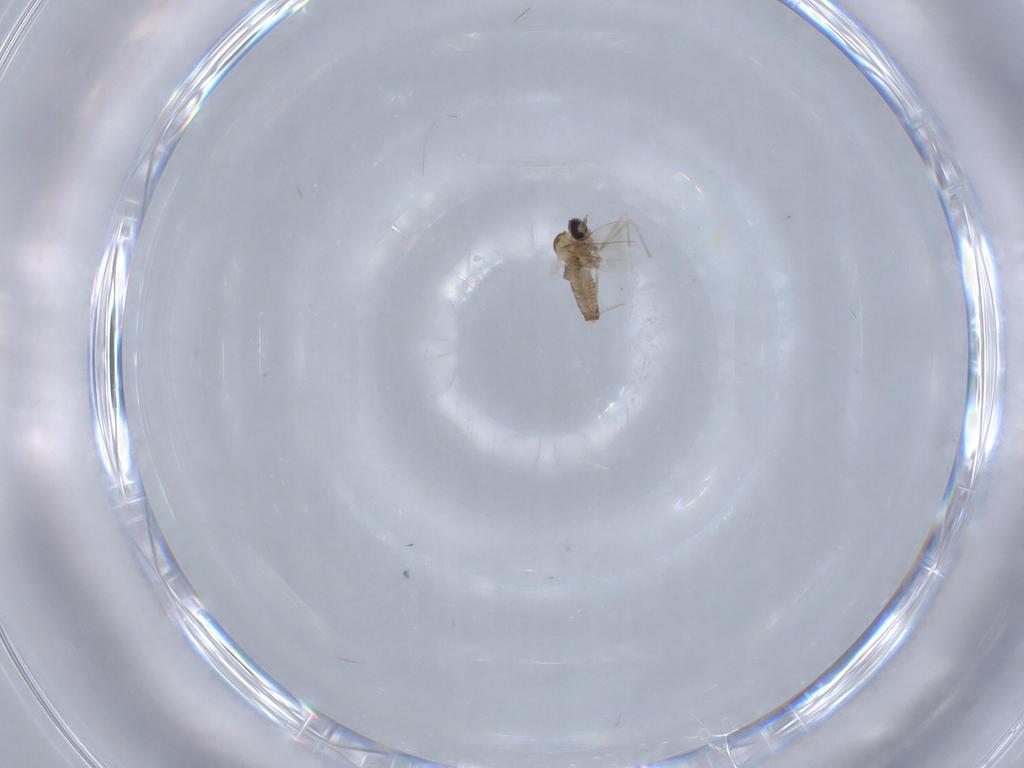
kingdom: Animalia
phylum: Arthropoda
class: Insecta
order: Diptera
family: Cecidomyiidae
